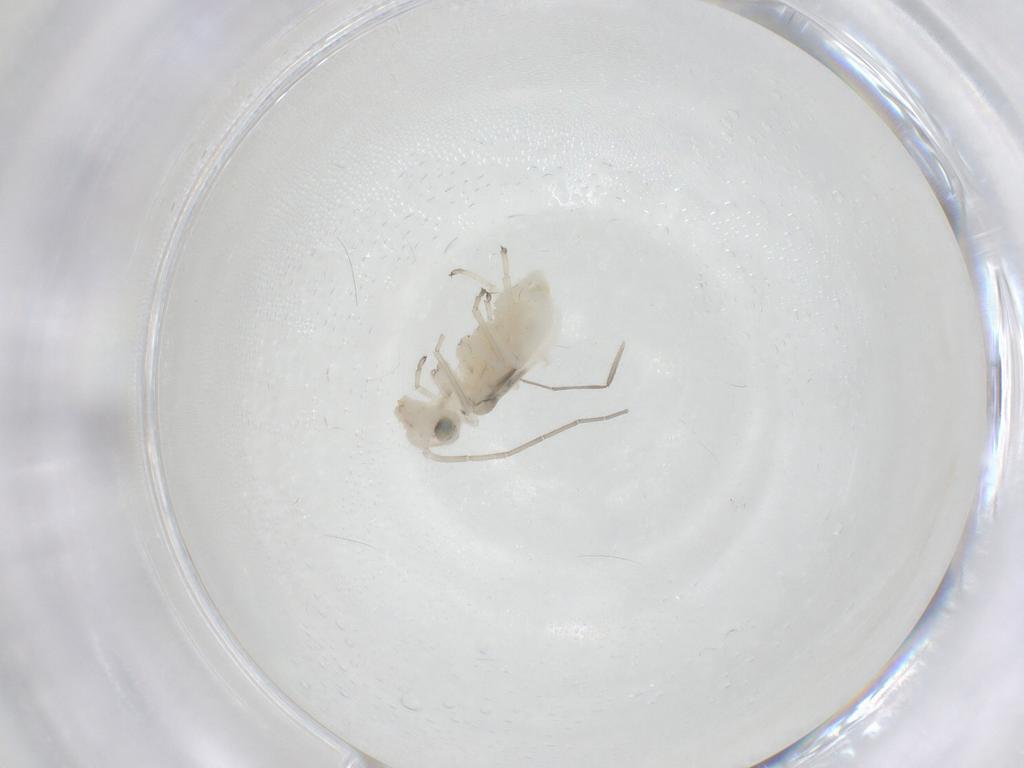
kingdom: Animalia
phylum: Arthropoda
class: Insecta
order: Psocodea
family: Caeciliusidae
